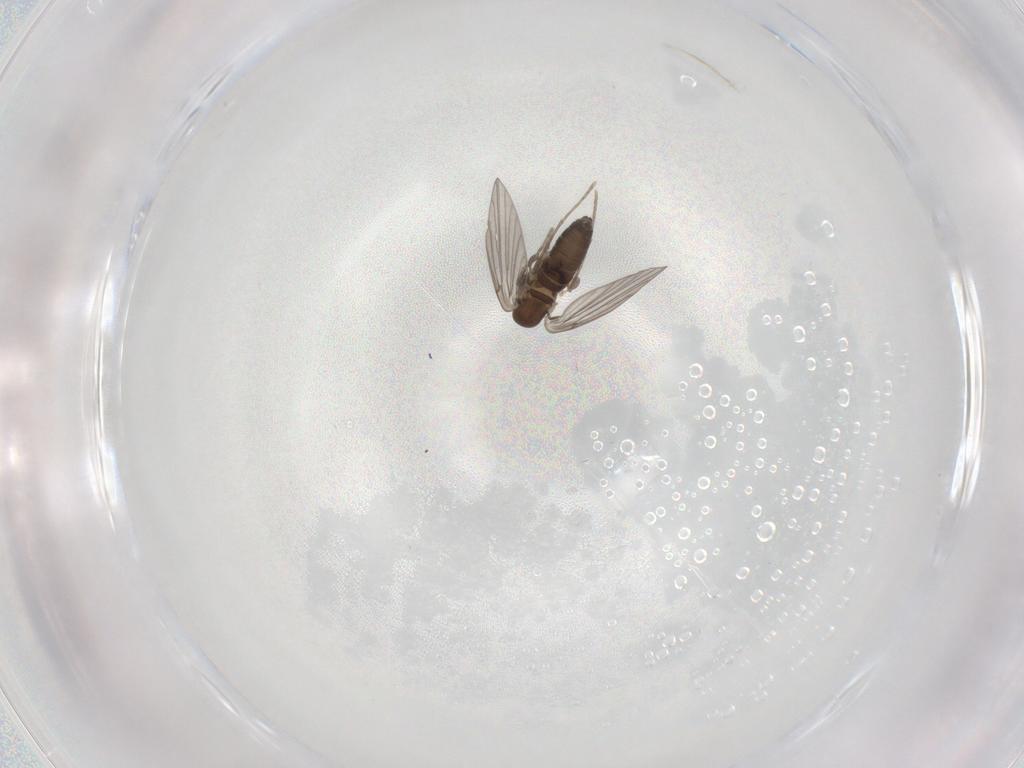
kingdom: Animalia
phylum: Arthropoda
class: Insecta
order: Diptera
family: Psychodidae
